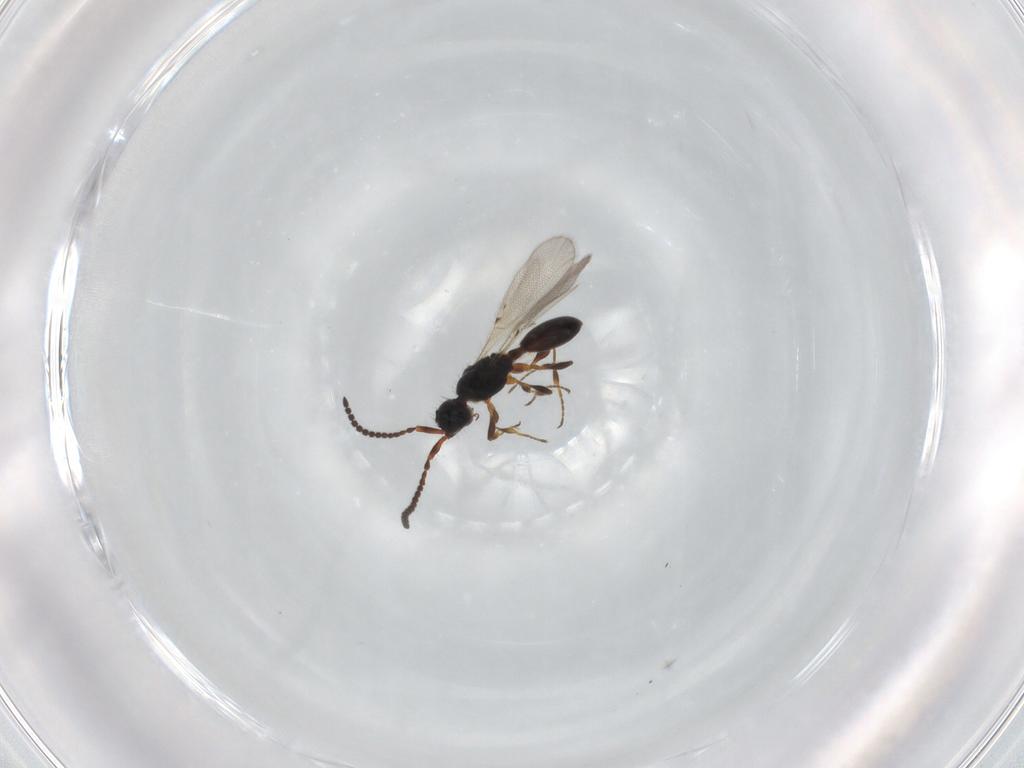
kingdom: Animalia
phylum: Arthropoda
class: Insecta
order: Hymenoptera
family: Diapriidae
